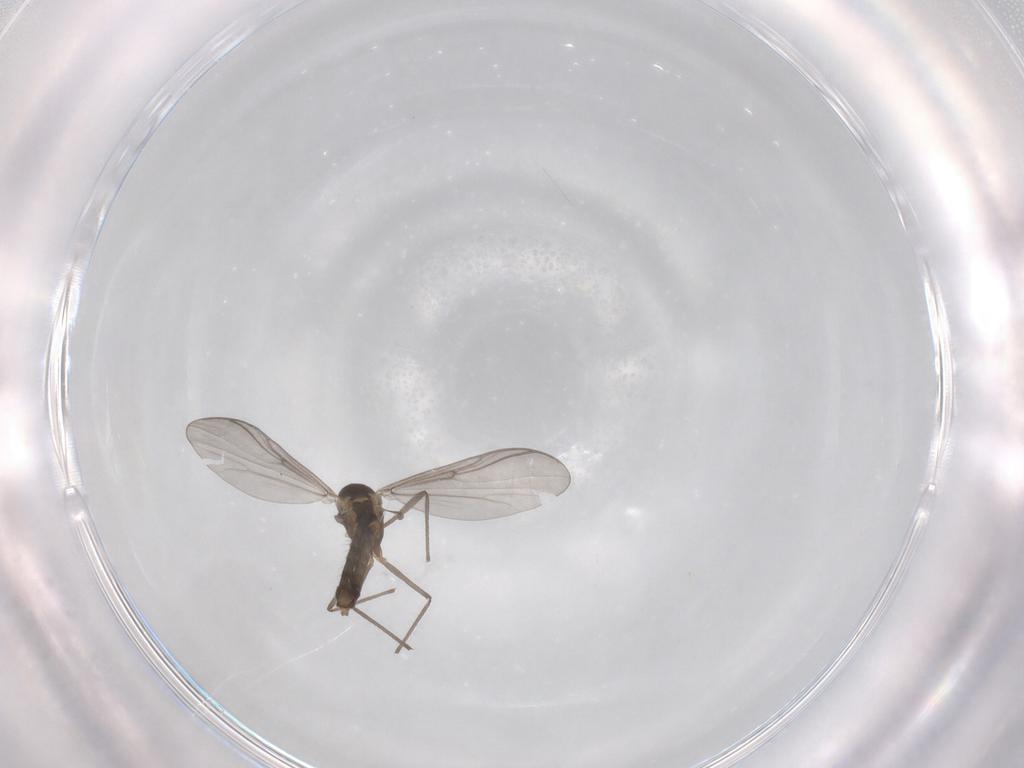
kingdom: Animalia
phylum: Arthropoda
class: Insecta
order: Diptera
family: Chironomidae
